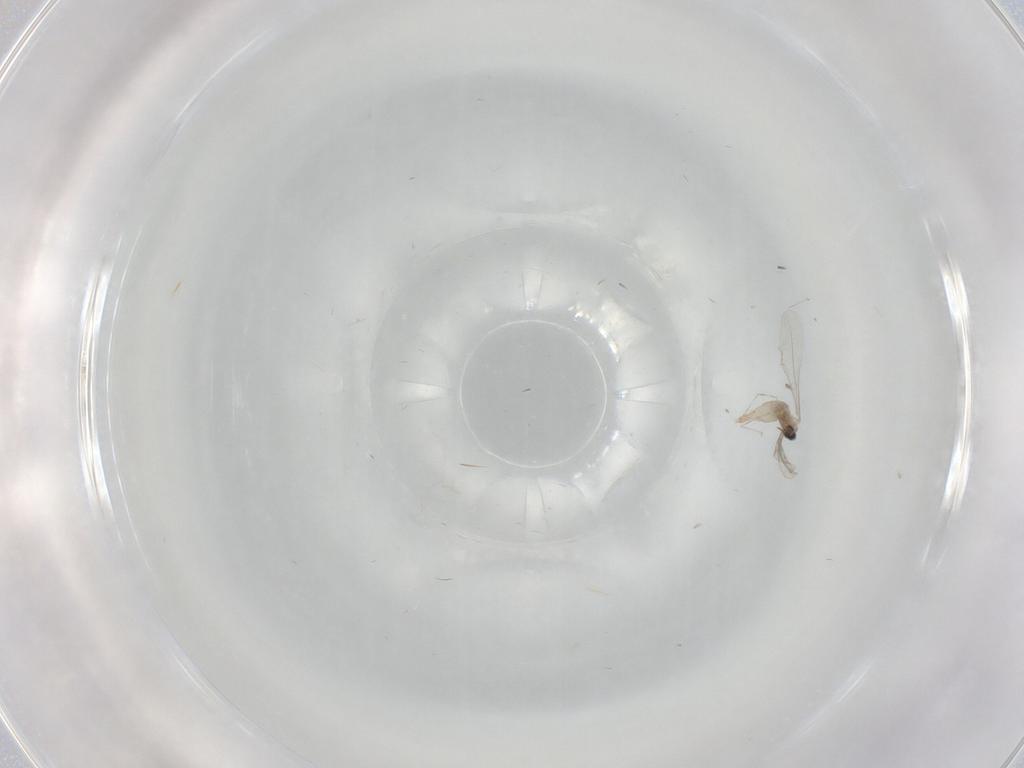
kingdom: Animalia
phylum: Arthropoda
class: Insecta
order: Diptera
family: Cecidomyiidae
